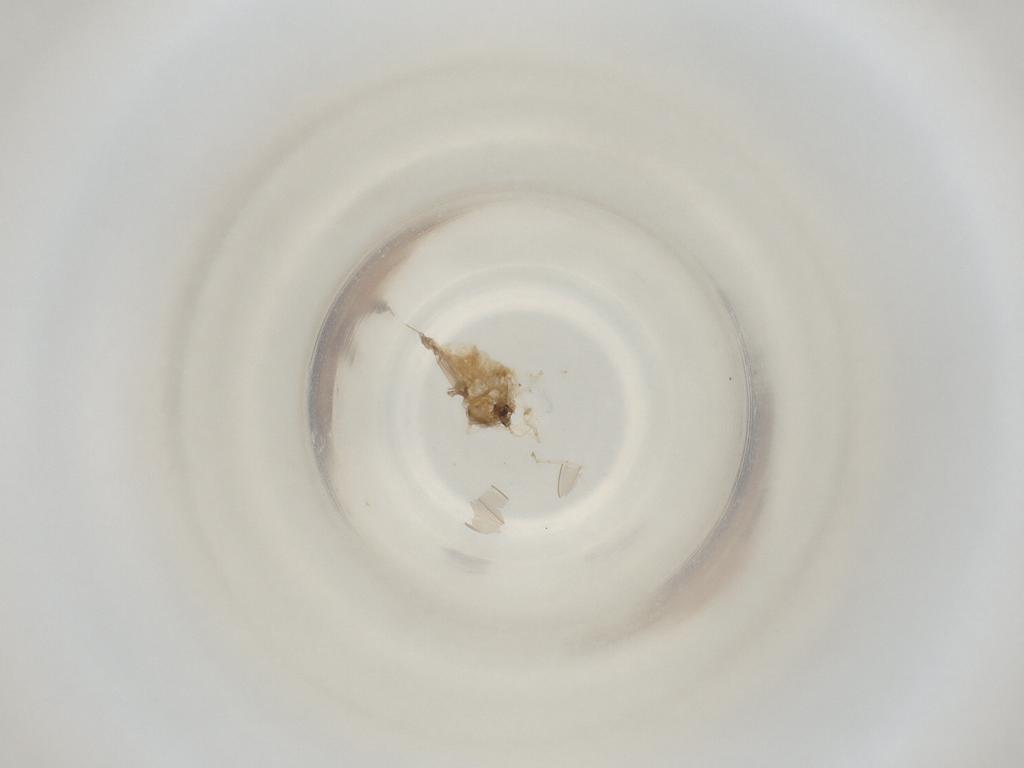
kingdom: Animalia
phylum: Arthropoda
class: Insecta
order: Diptera
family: Cecidomyiidae
